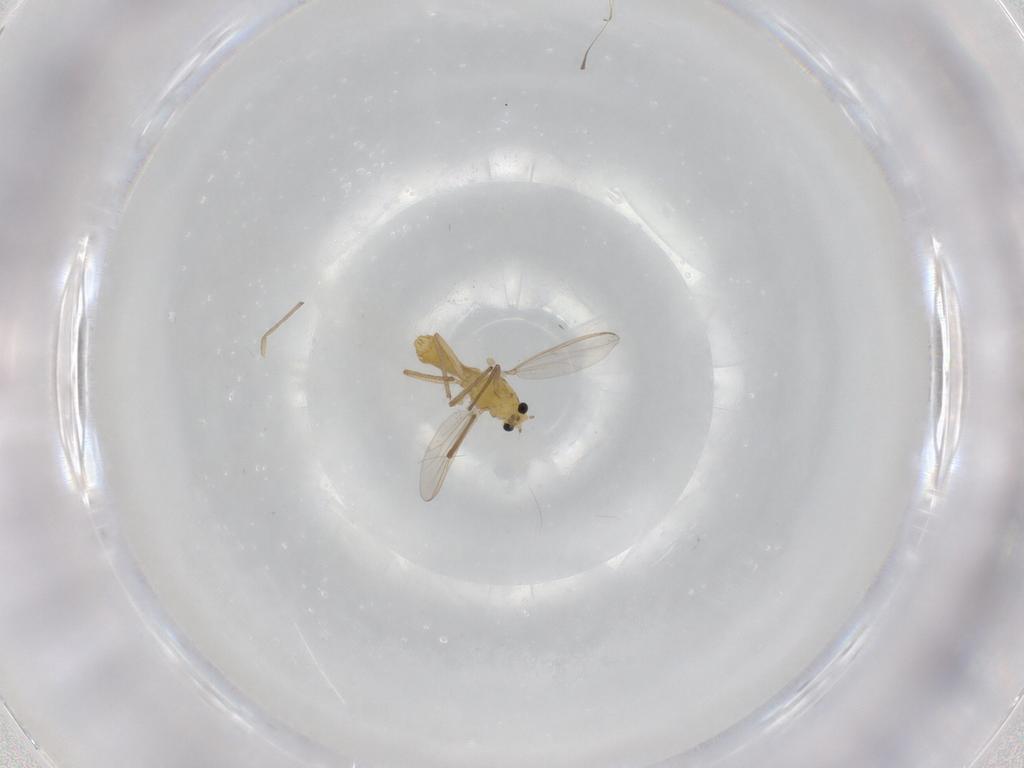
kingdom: Animalia
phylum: Arthropoda
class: Insecta
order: Diptera
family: Chironomidae
